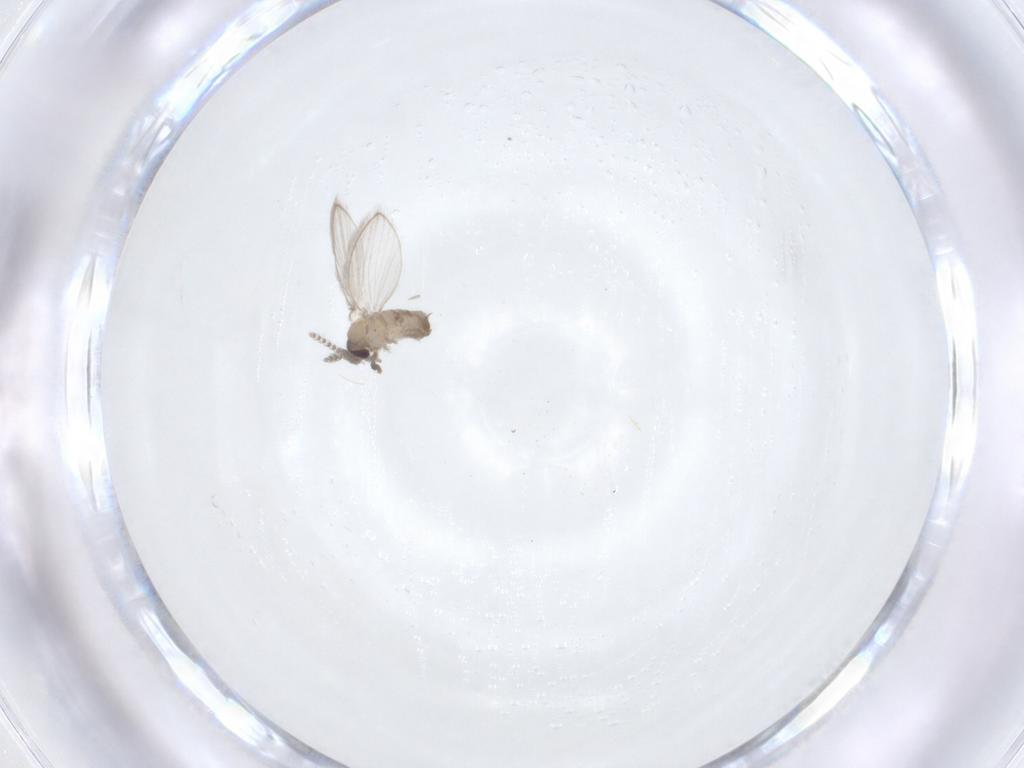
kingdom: Animalia
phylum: Arthropoda
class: Insecta
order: Diptera
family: Psychodidae
